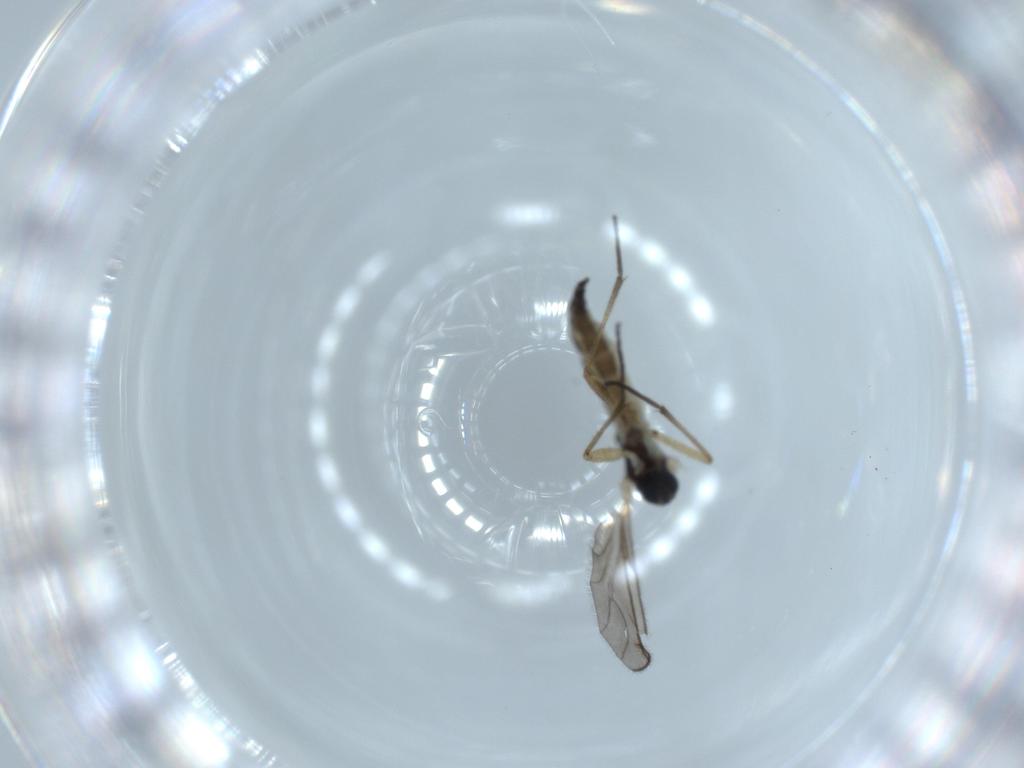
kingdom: Animalia
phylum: Arthropoda
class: Insecta
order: Diptera
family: Sciaridae
